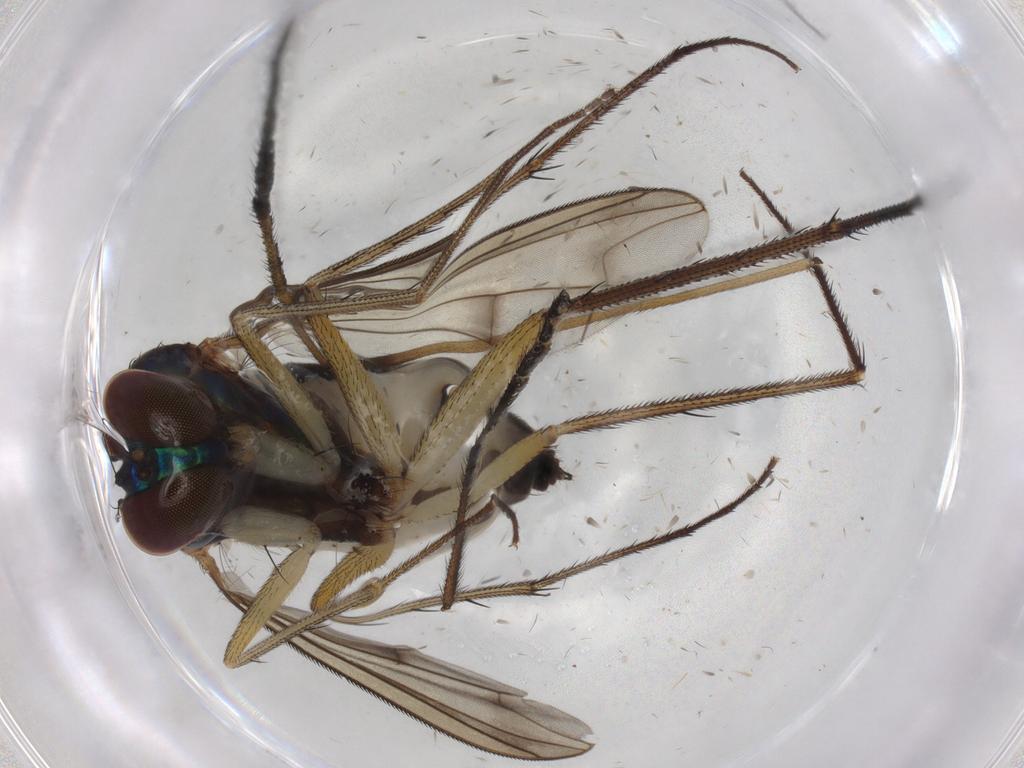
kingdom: Animalia
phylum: Arthropoda
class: Insecta
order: Diptera
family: Dolichopodidae
